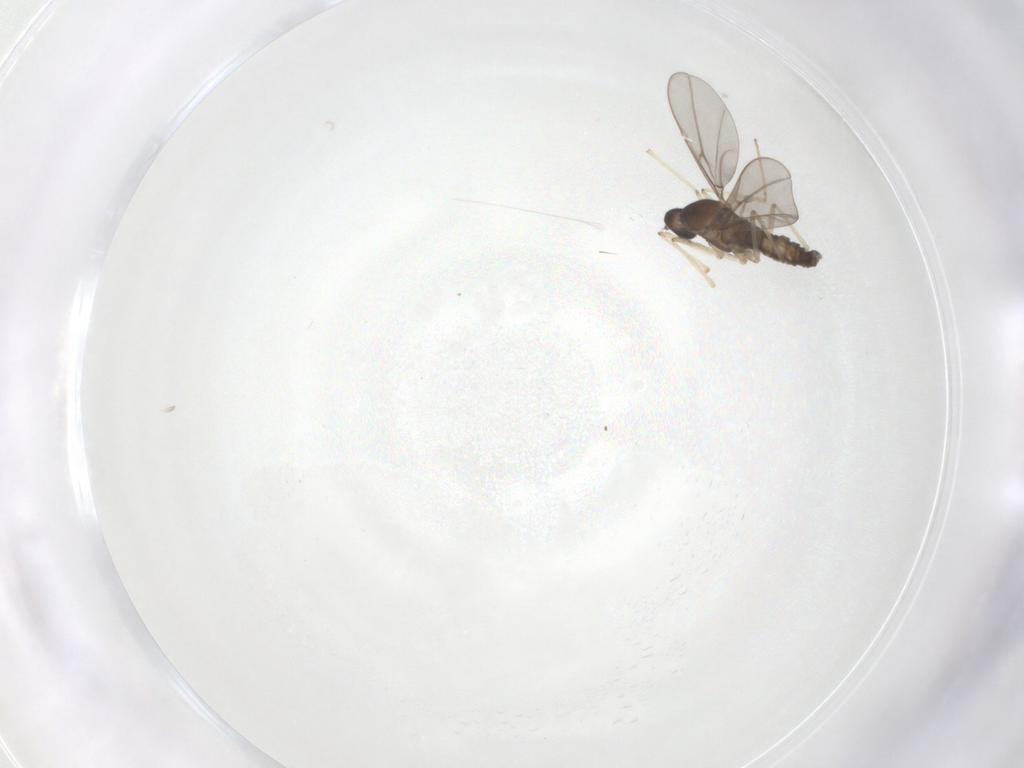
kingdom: Animalia
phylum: Arthropoda
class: Insecta
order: Diptera
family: Cecidomyiidae
